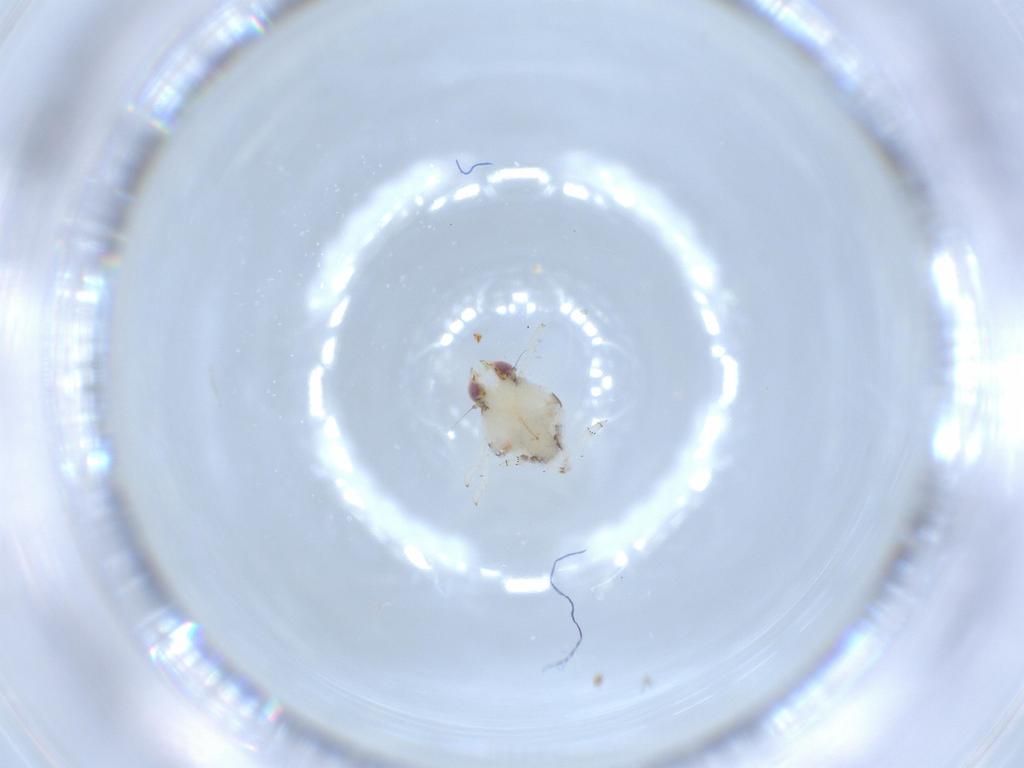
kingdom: Animalia
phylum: Arthropoda
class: Insecta
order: Hemiptera
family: Nogodinidae
